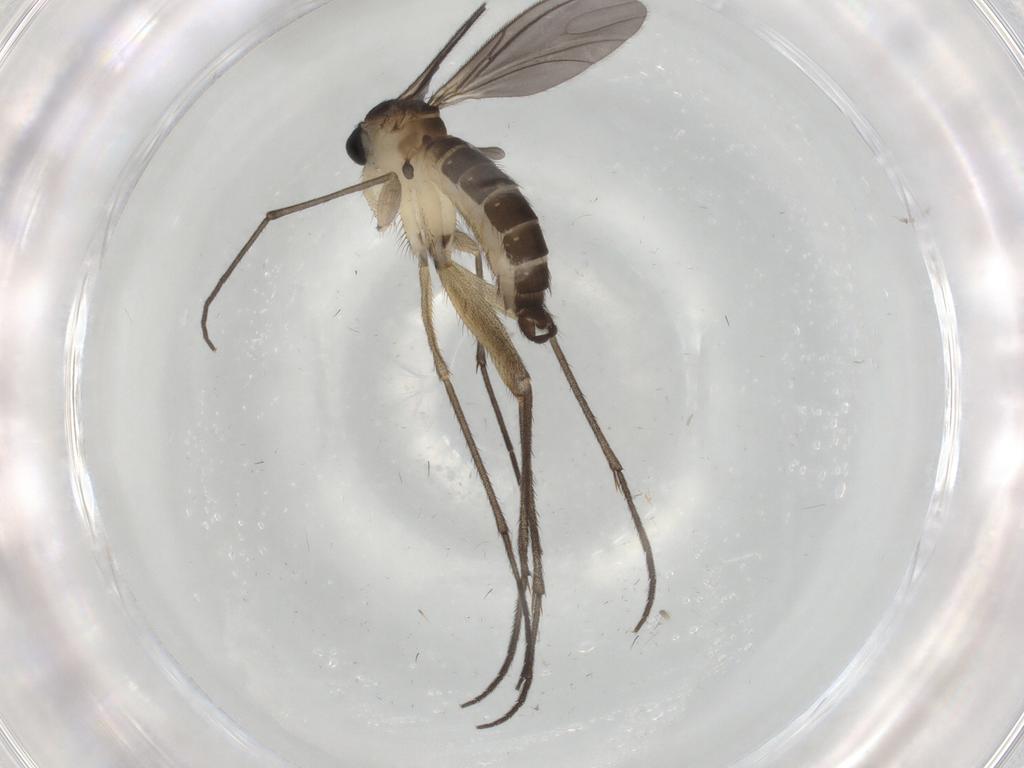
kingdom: Animalia
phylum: Arthropoda
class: Insecta
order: Diptera
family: Sciaridae
